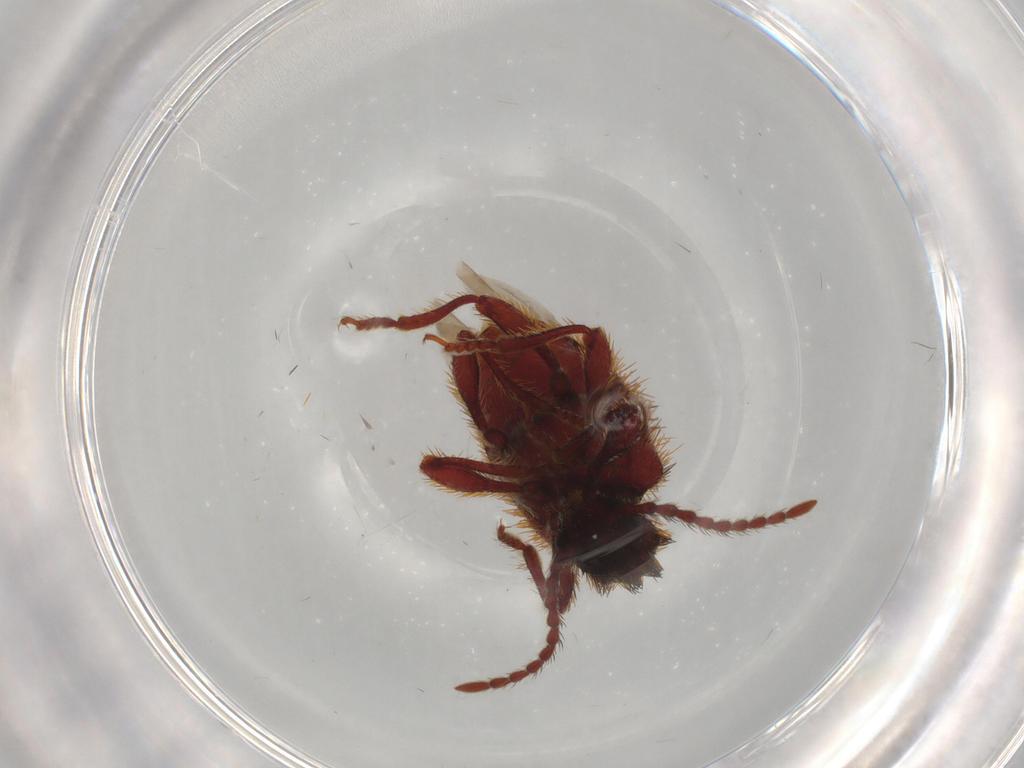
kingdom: Animalia
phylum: Arthropoda
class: Insecta
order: Coleoptera
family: Ptinidae
